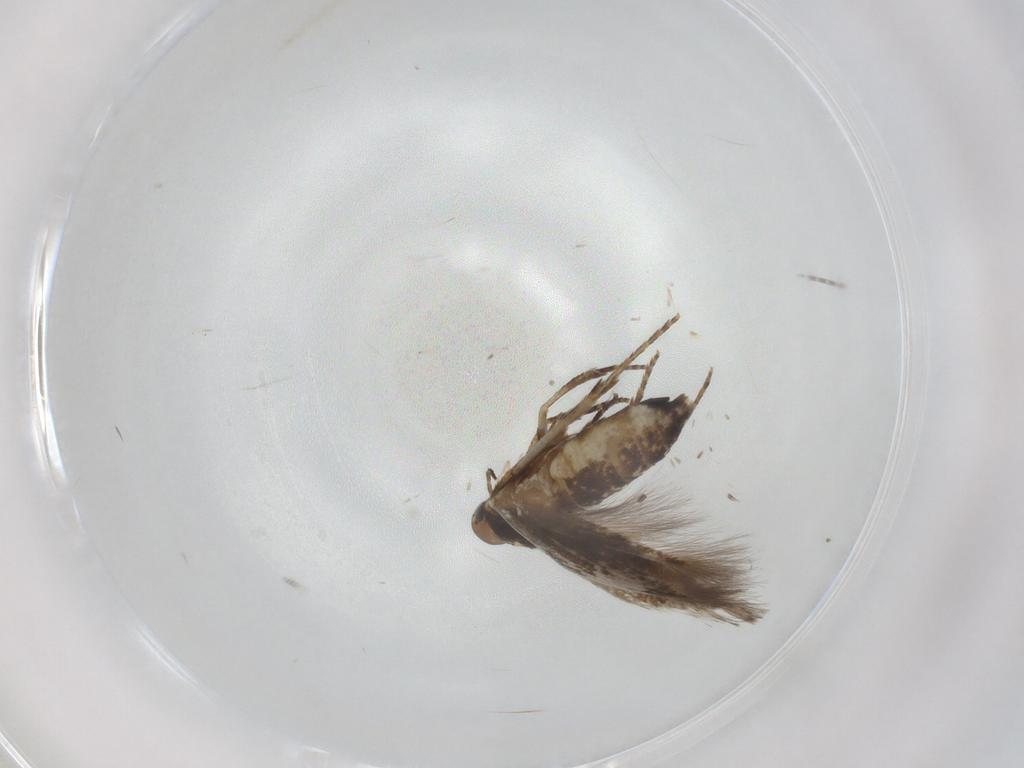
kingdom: Animalia
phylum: Arthropoda
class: Insecta
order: Lepidoptera
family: Cosmopterigidae
